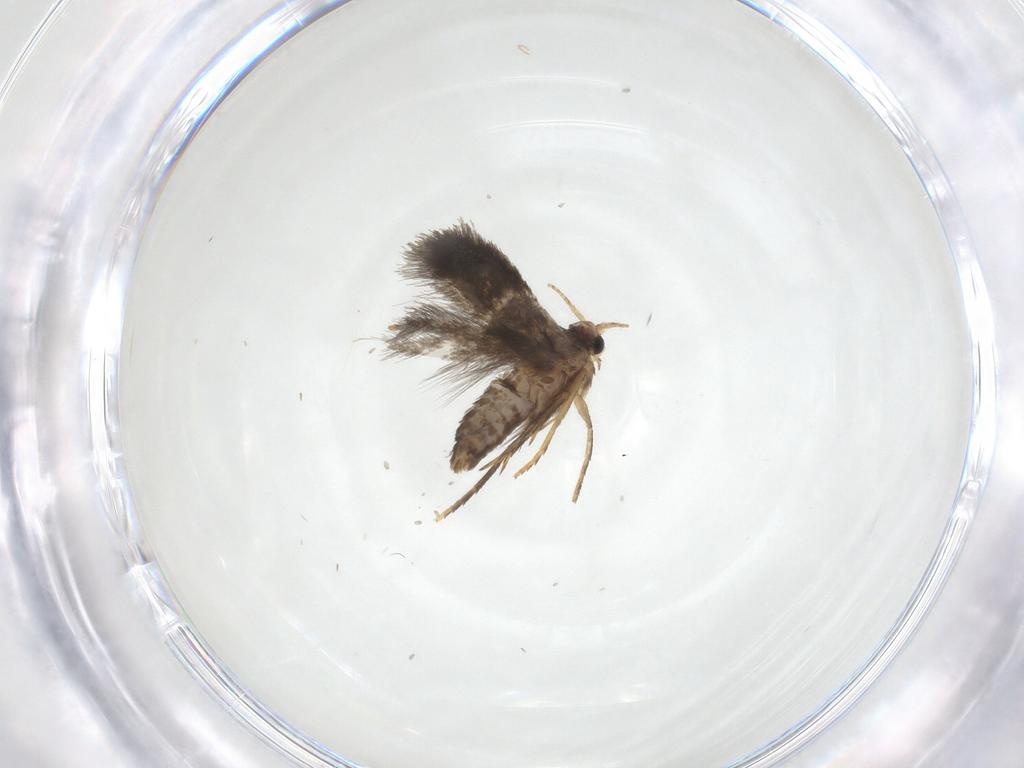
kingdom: Animalia
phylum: Arthropoda
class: Insecta
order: Lepidoptera
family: Nepticulidae
